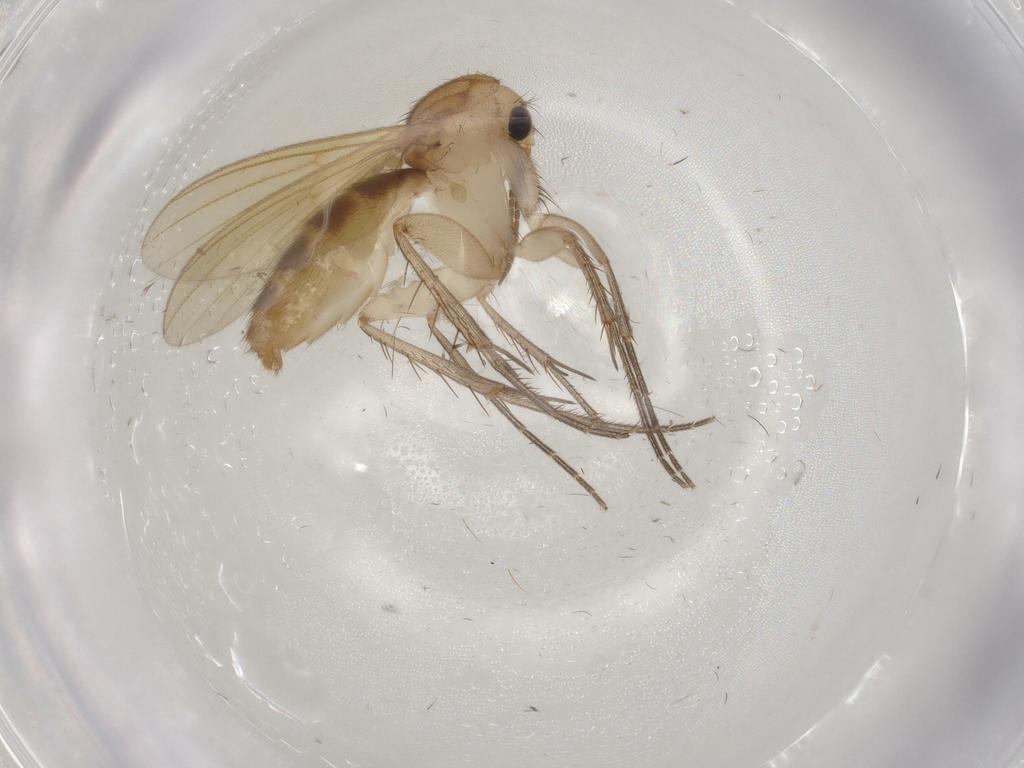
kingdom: Animalia
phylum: Arthropoda
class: Insecta
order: Diptera
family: Mycetophilidae
